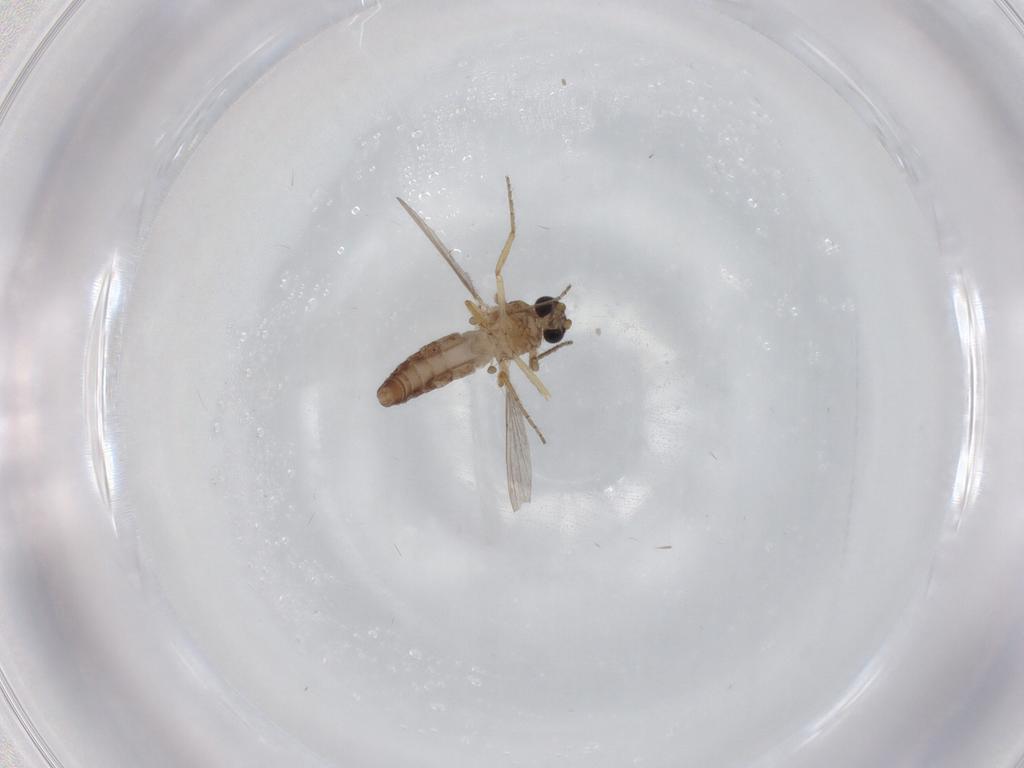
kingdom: Animalia
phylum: Arthropoda
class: Insecta
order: Diptera
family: Ceratopogonidae
